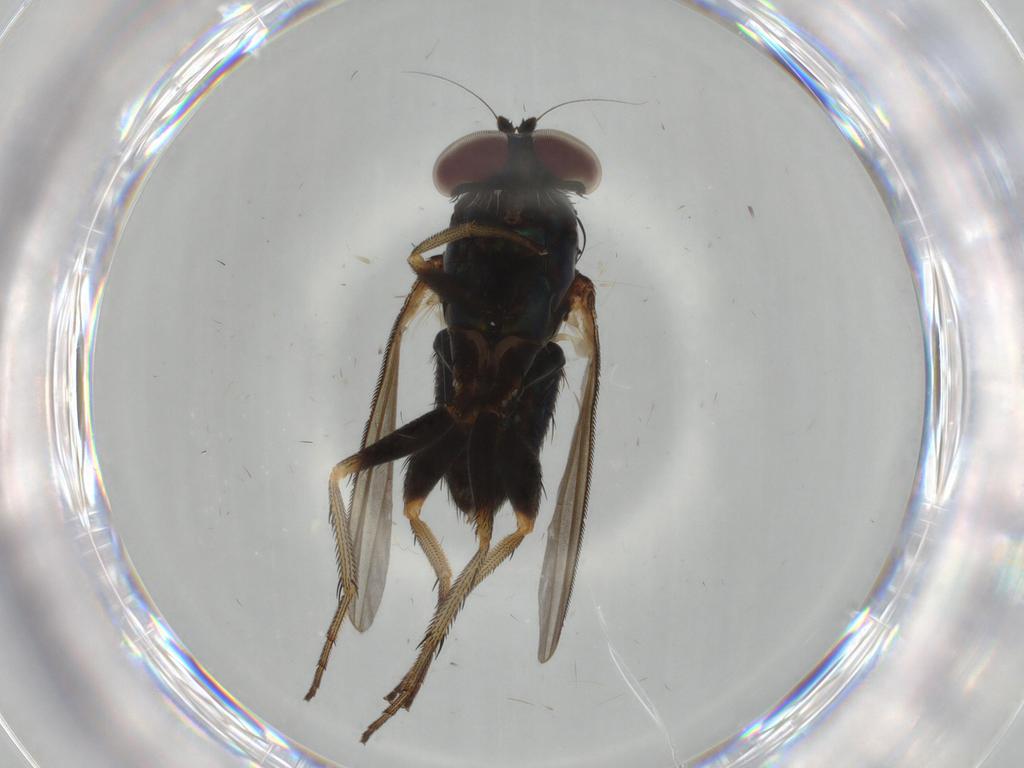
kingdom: Animalia
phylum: Arthropoda
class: Insecta
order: Diptera
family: Dolichopodidae
